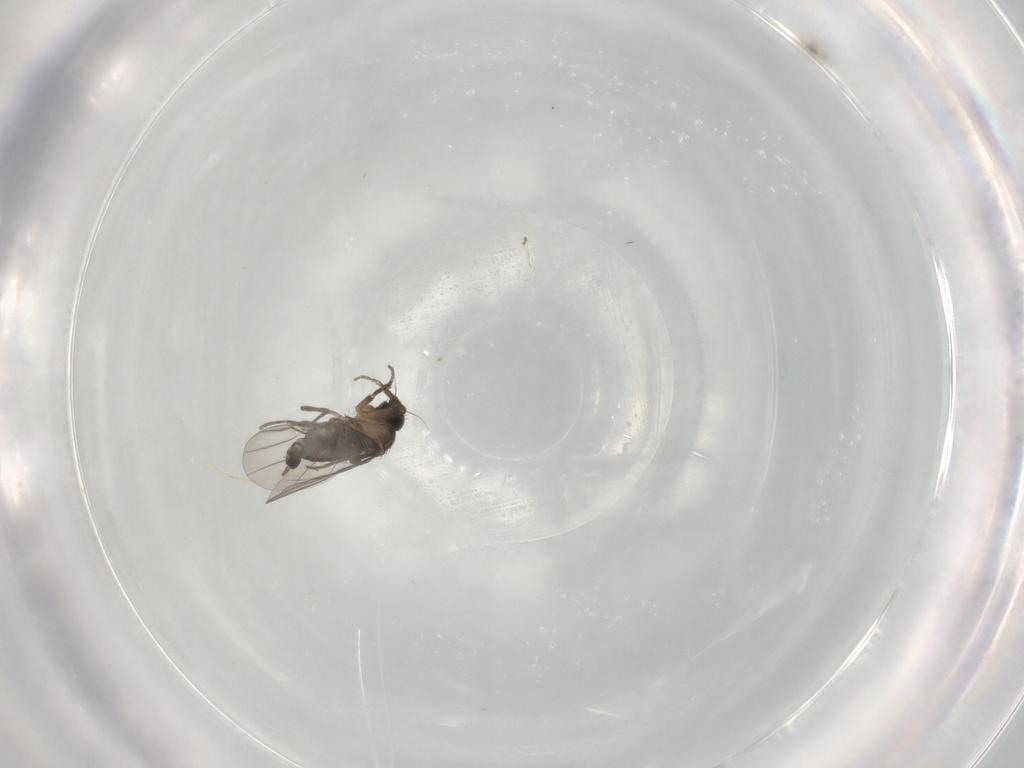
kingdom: Animalia
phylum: Arthropoda
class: Insecta
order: Diptera
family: Phoridae
